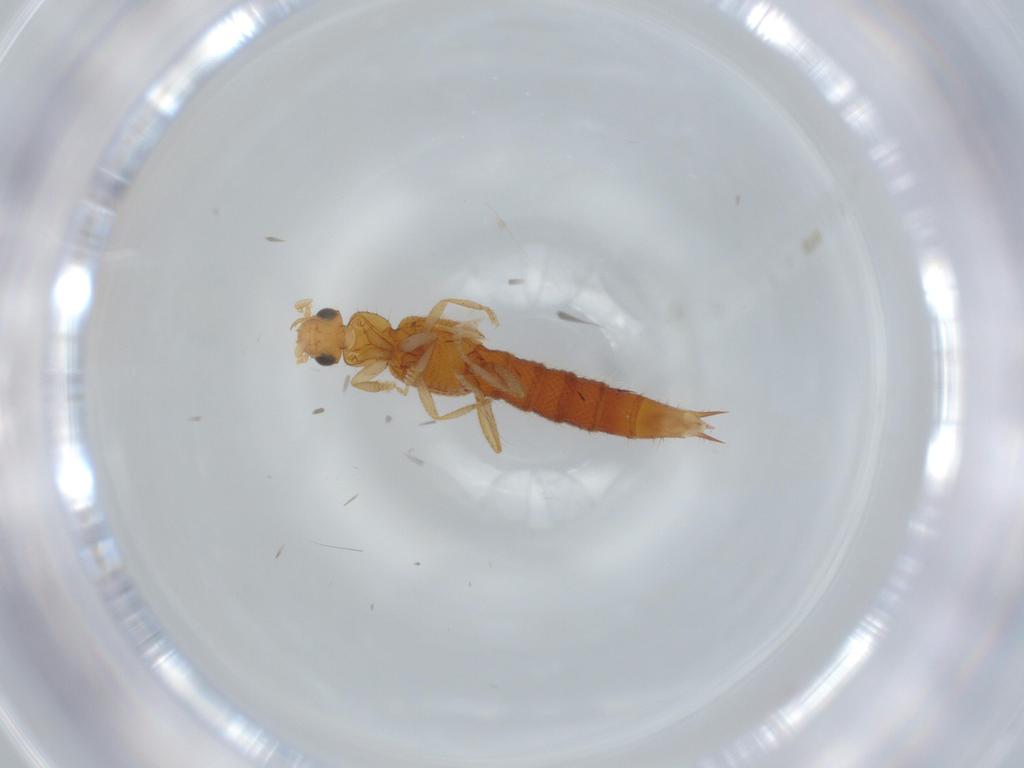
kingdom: Animalia
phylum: Arthropoda
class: Insecta
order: Coleoptera
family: Staphylinidae
